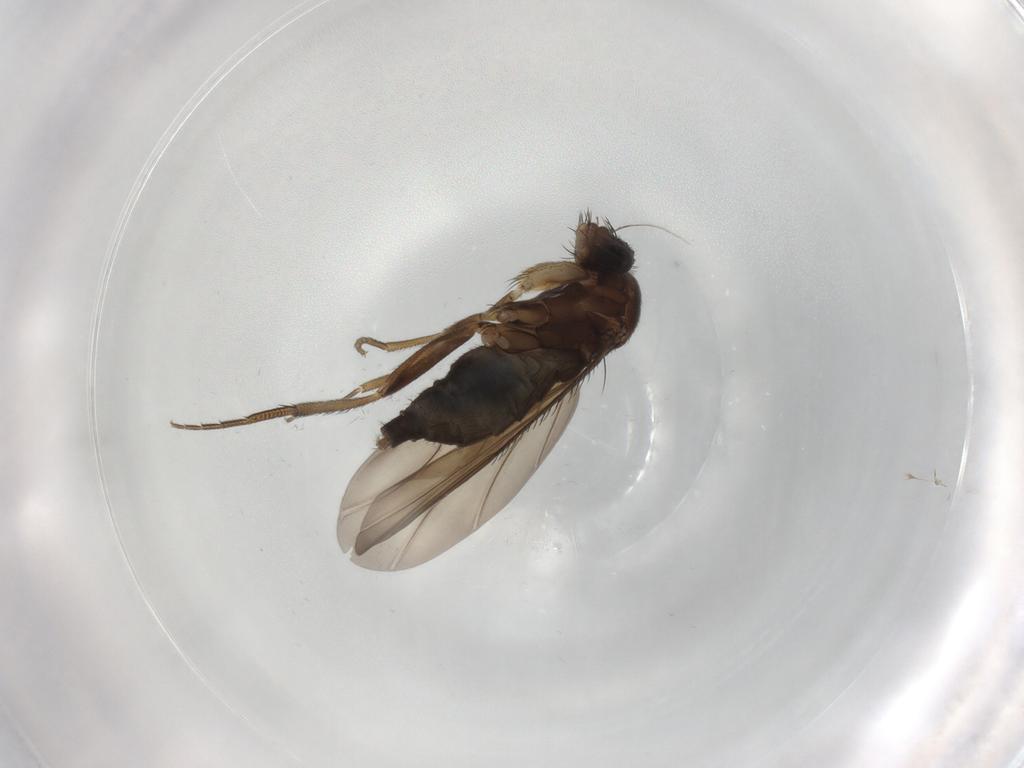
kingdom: Animalia
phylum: Arthropoda
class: Insecta
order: Diptera
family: Phoridae
